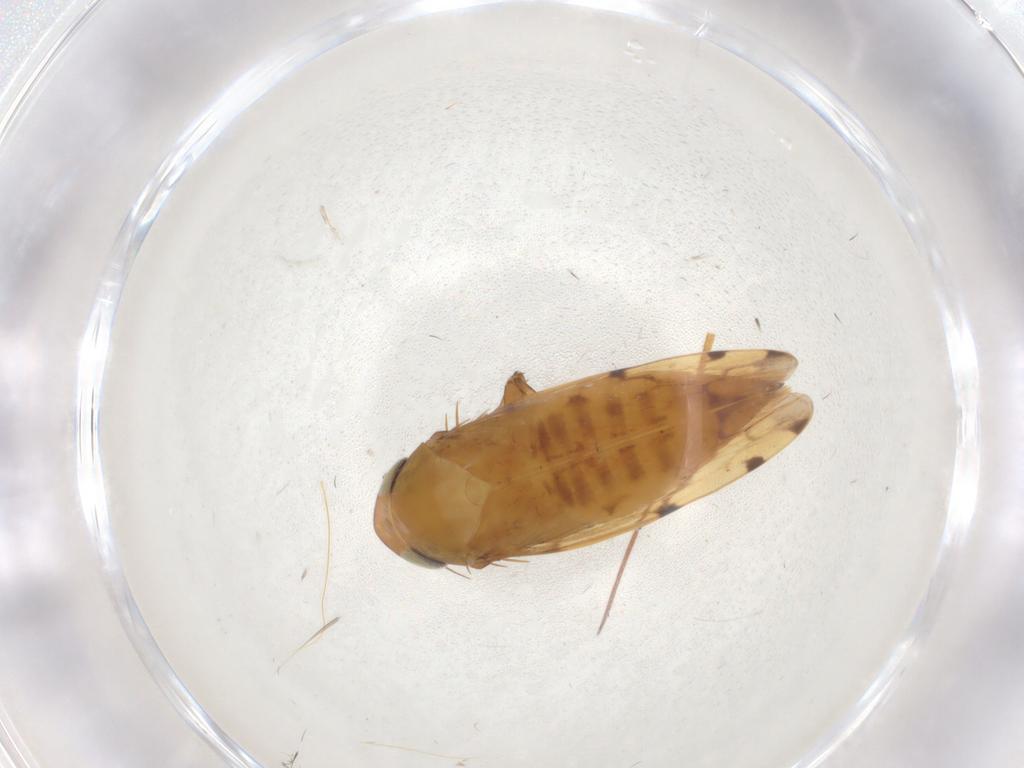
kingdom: Animalia
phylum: Arthropoda
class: Insecta
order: Hemiptera
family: Cicadellidae
